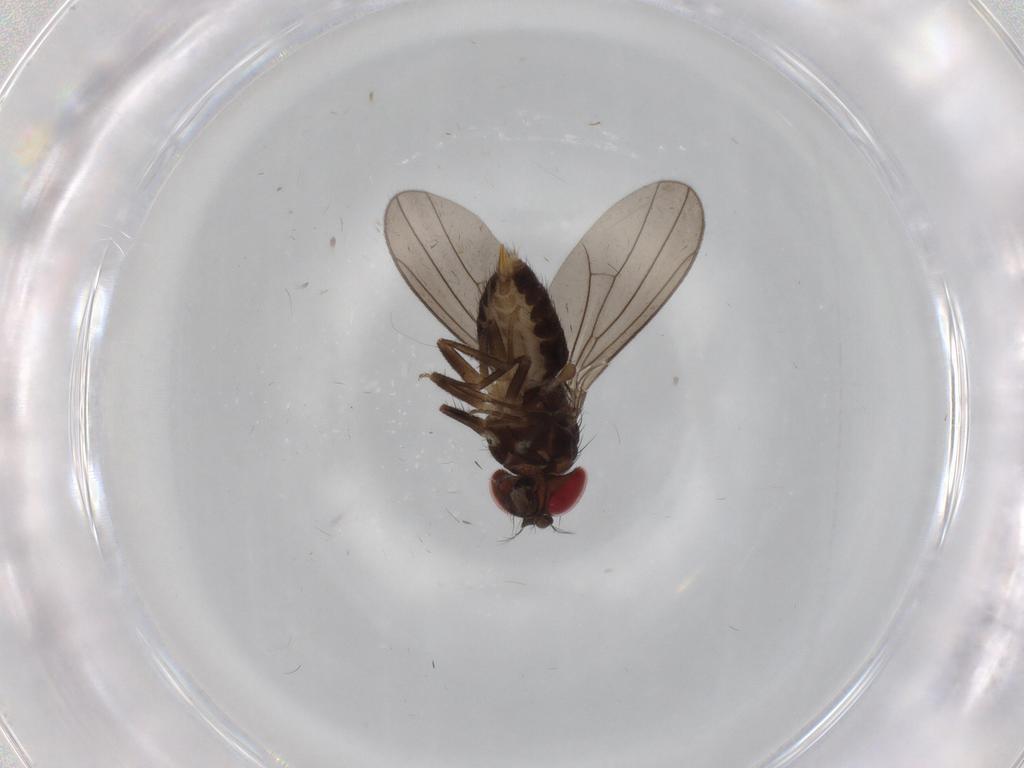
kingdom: Animalia
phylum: Arthropoda
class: Insecta
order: Diptera
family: Drosophilidae
